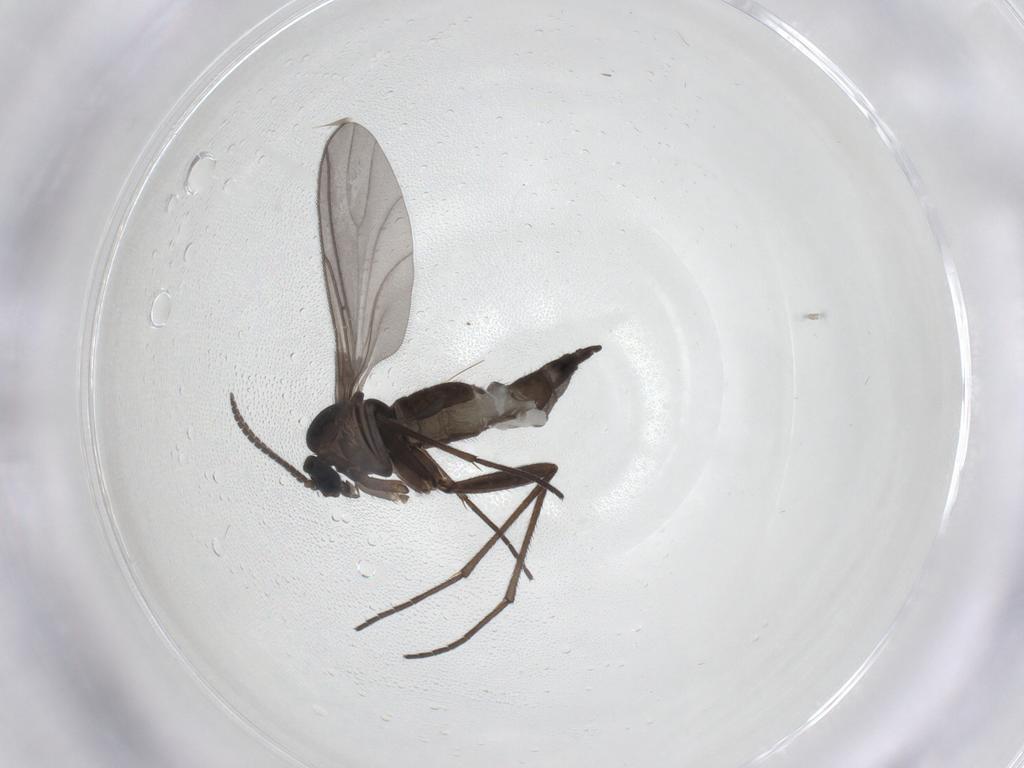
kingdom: Animalia
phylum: Arthropoda
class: Insecta
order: Diptera
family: Sciaridae
